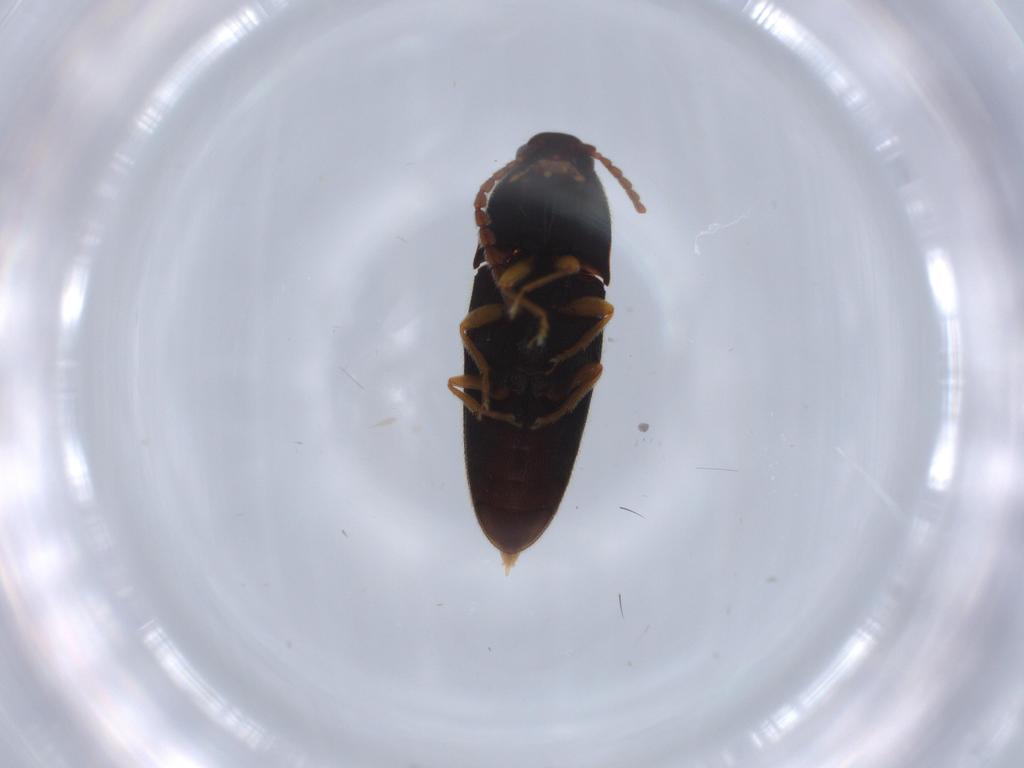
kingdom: Animalia
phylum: Arthropoda
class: Insecta
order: Coleoptera
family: Elateridae
